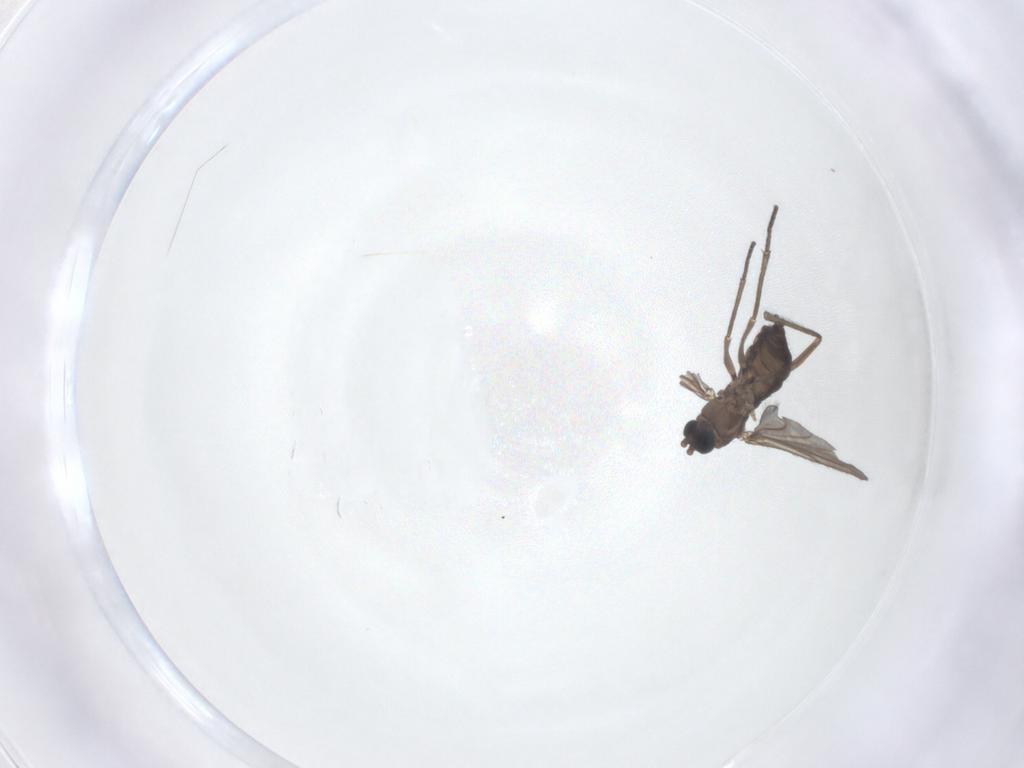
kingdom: Animalia
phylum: Arthropoda
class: Insecta
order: Diptera
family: Sciaridae
